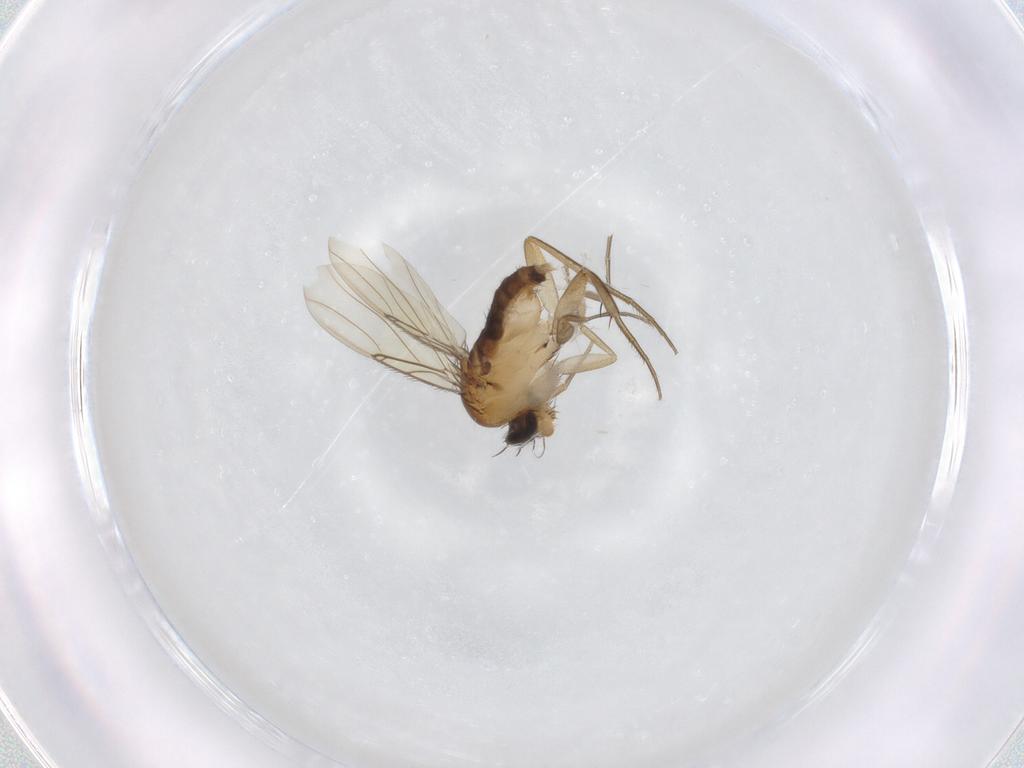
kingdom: Animalia
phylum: Arthropoda
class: Insecta
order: Diptera
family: Phoridae
